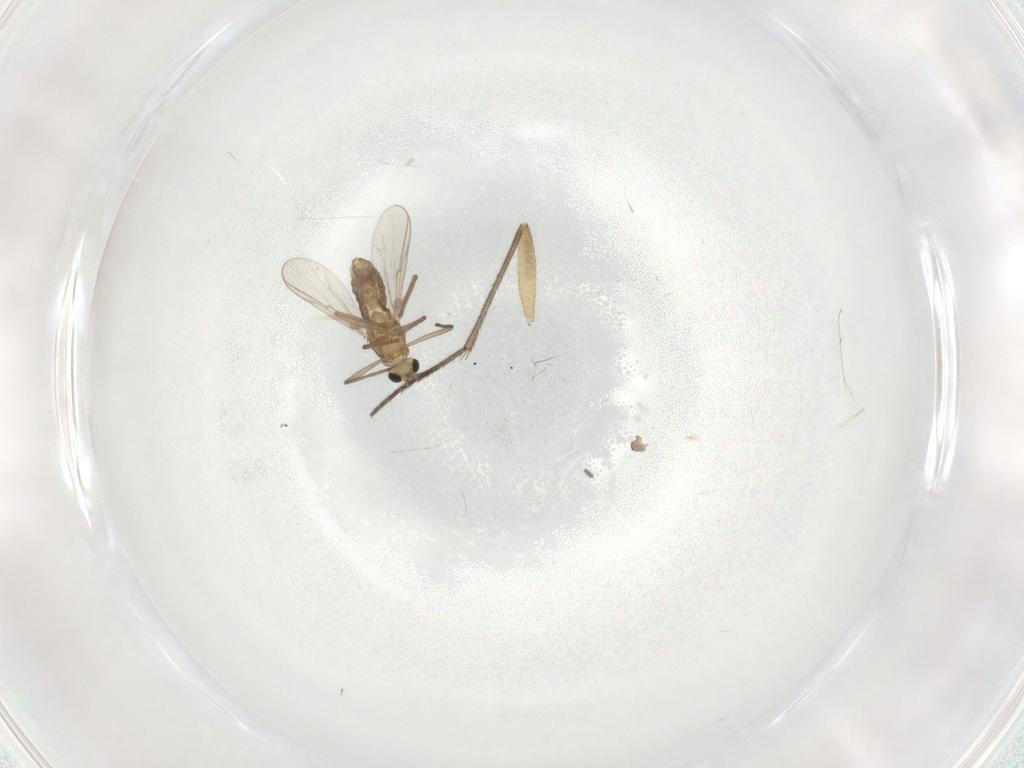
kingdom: Animalia
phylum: Arthropoda
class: Insecta
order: Diptera
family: Chironomidae
